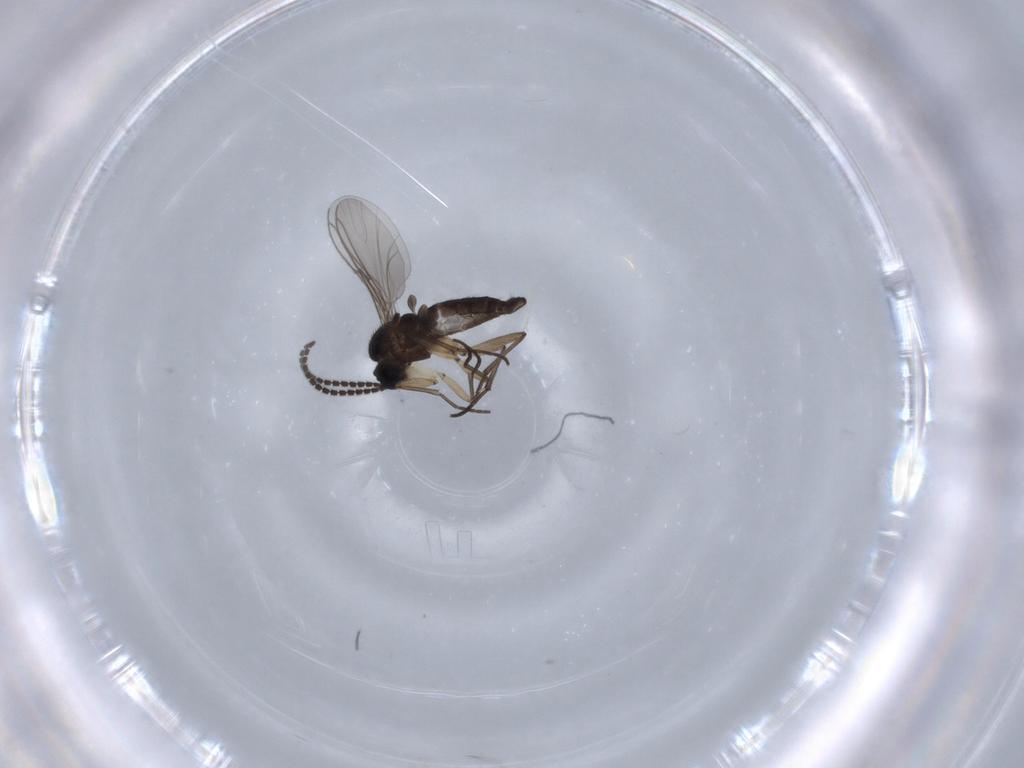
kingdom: Animalia
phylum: Arthropoda
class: Insecta
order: Diptera
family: Sciaridae
